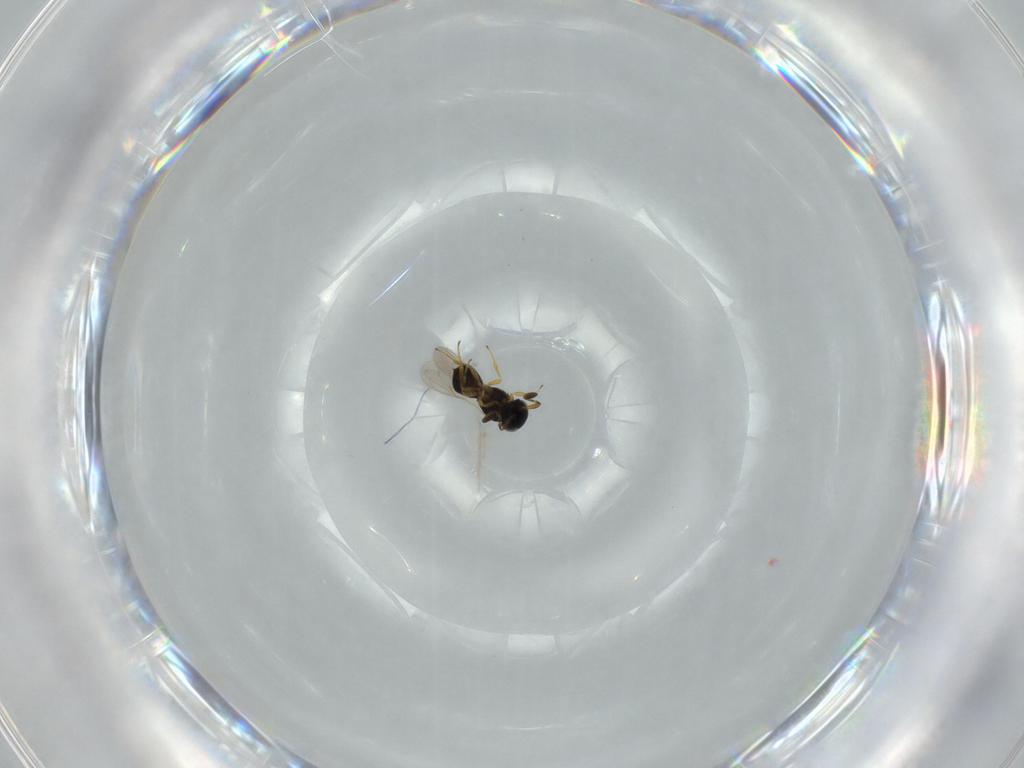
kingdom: Animalia
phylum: Arthropoda
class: Insecta
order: Hymenoptera
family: Scelionidae
